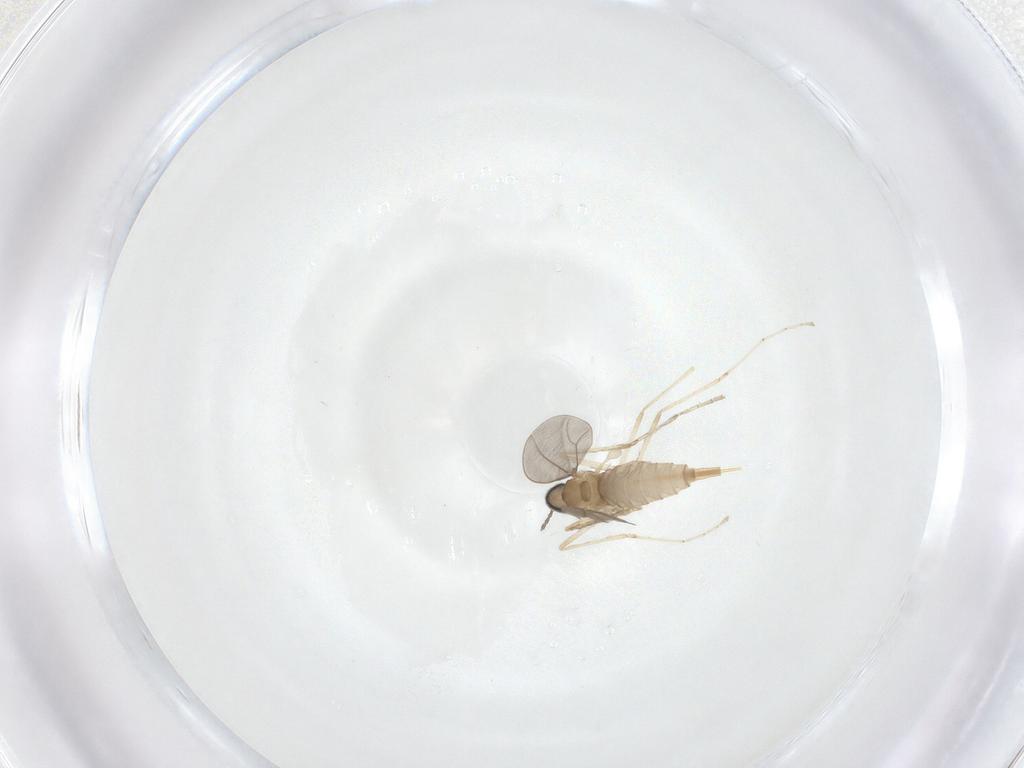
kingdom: Animalia
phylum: Arthropoda
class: Insecta
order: Diptera
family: Cecidomyiidae
